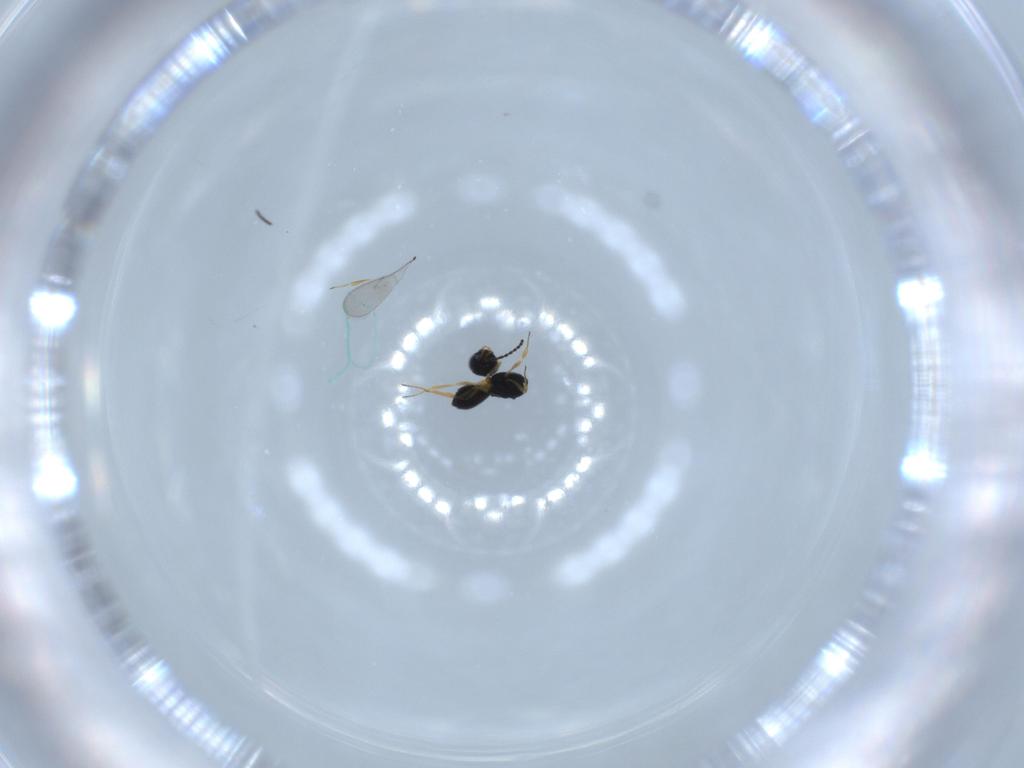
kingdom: Animalia
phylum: Arthropoda
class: Insecta
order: Hymenoptera
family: Scelionidae
